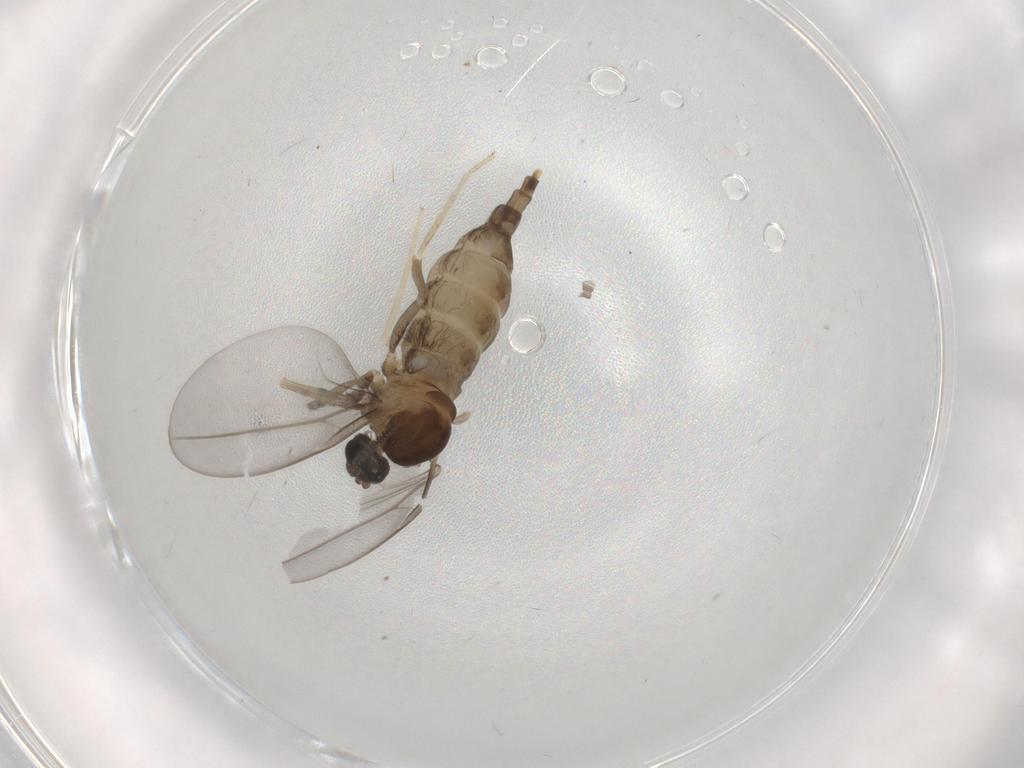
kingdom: Animalia
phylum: Arthropoda
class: Insecta
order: Diptera
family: Cecidomyiidae
